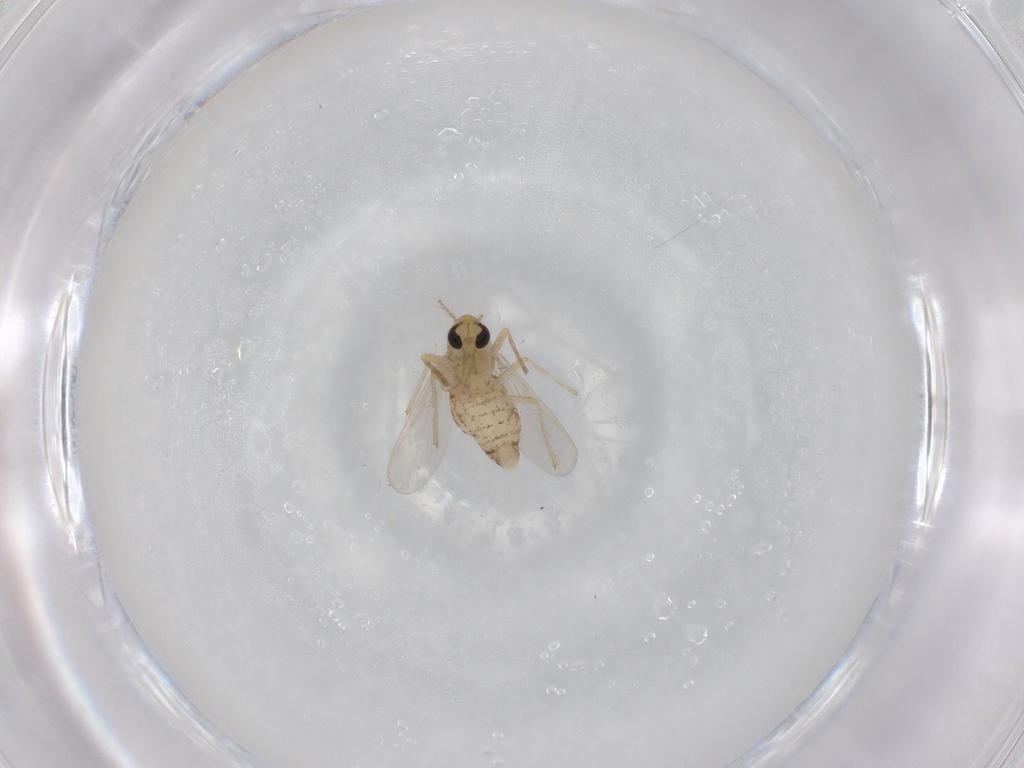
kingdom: Animalia
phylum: Arthropoda
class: Insecta
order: Diptera
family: Chironomidae
